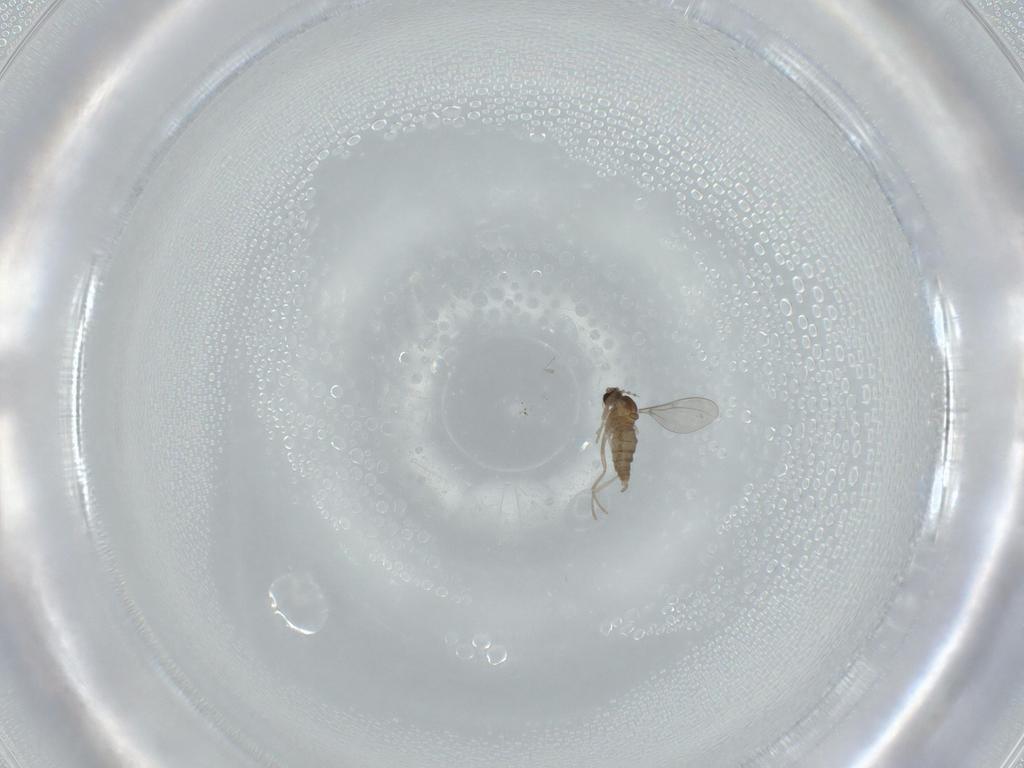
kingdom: Animalia
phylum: Arthropoda
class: Insecta
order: Diptera
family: Cecidomyiidae
